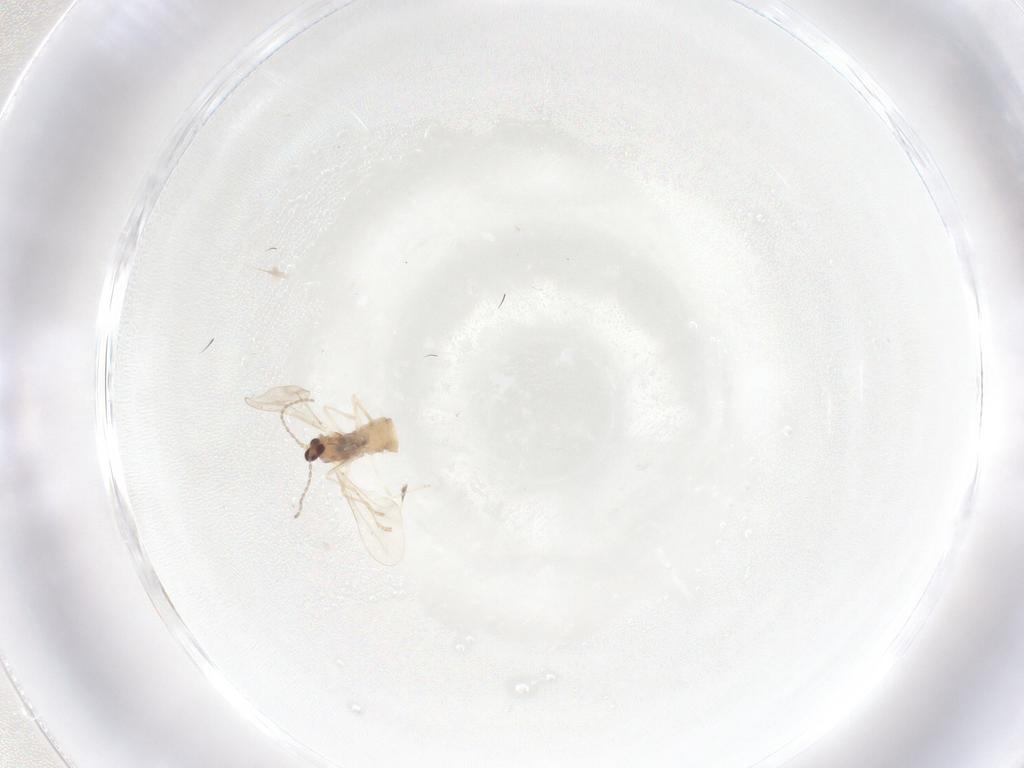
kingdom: Animalia
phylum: Arthropoda
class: Insecta
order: Diptera
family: Cecidomyiidae
